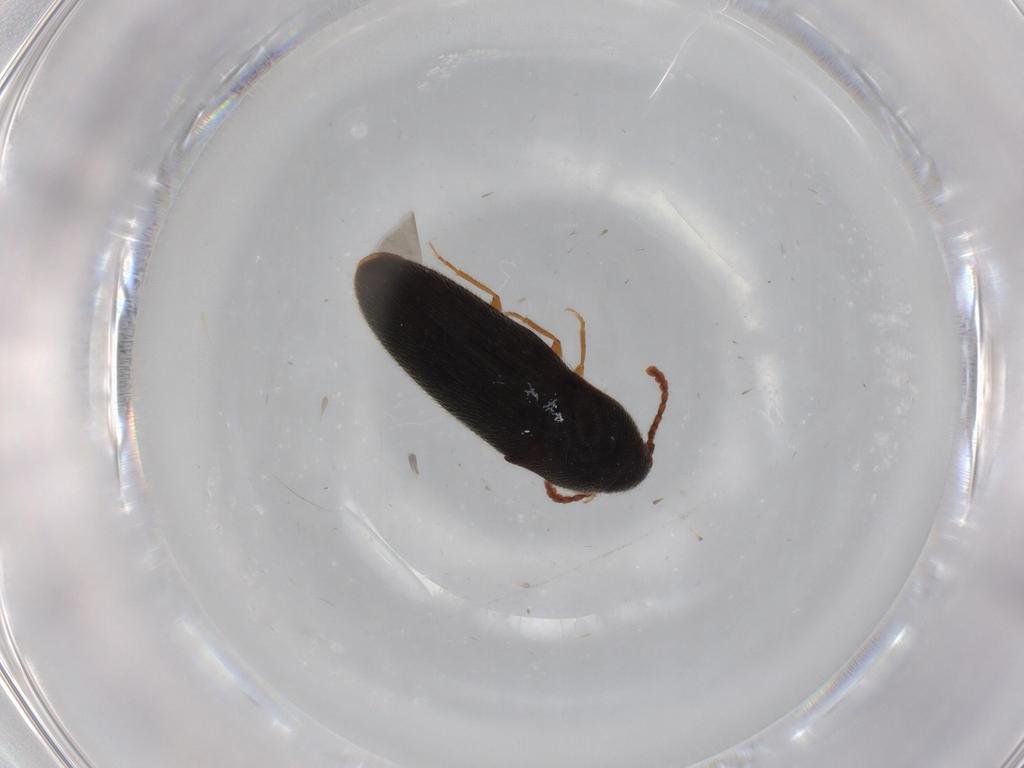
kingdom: Animalia
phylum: Arthropoda
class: Insecta
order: Coleoptera
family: Elateridae
